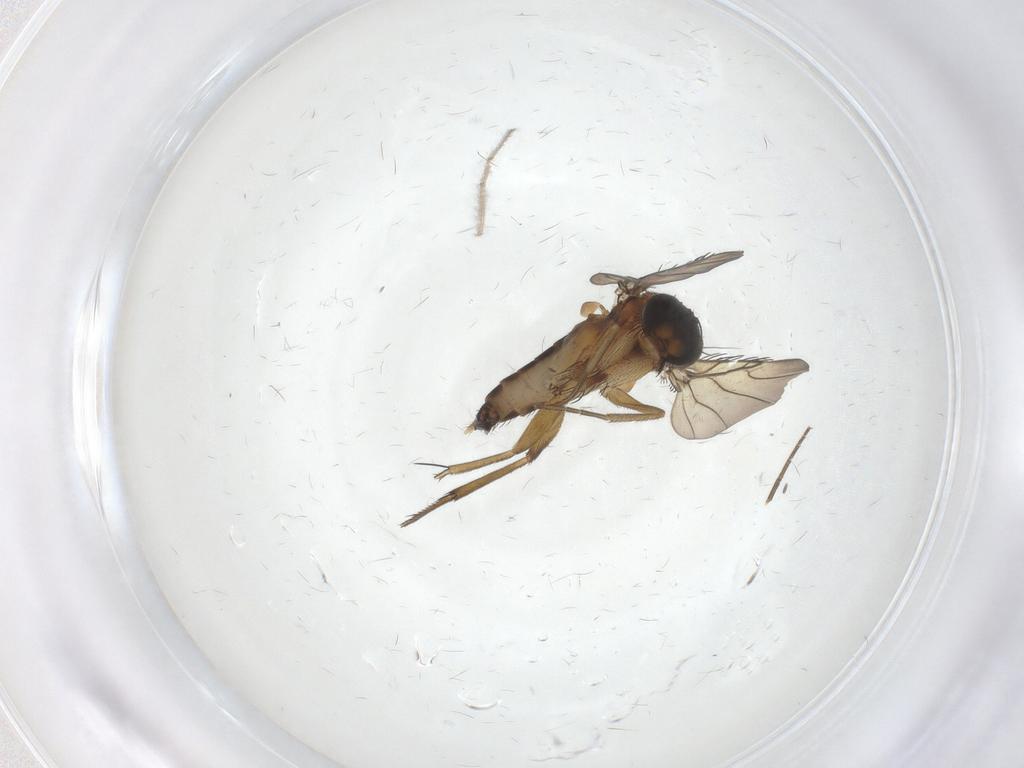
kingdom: Animalia
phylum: Arthropoda
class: Insecta
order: Diptera
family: Phoridae
